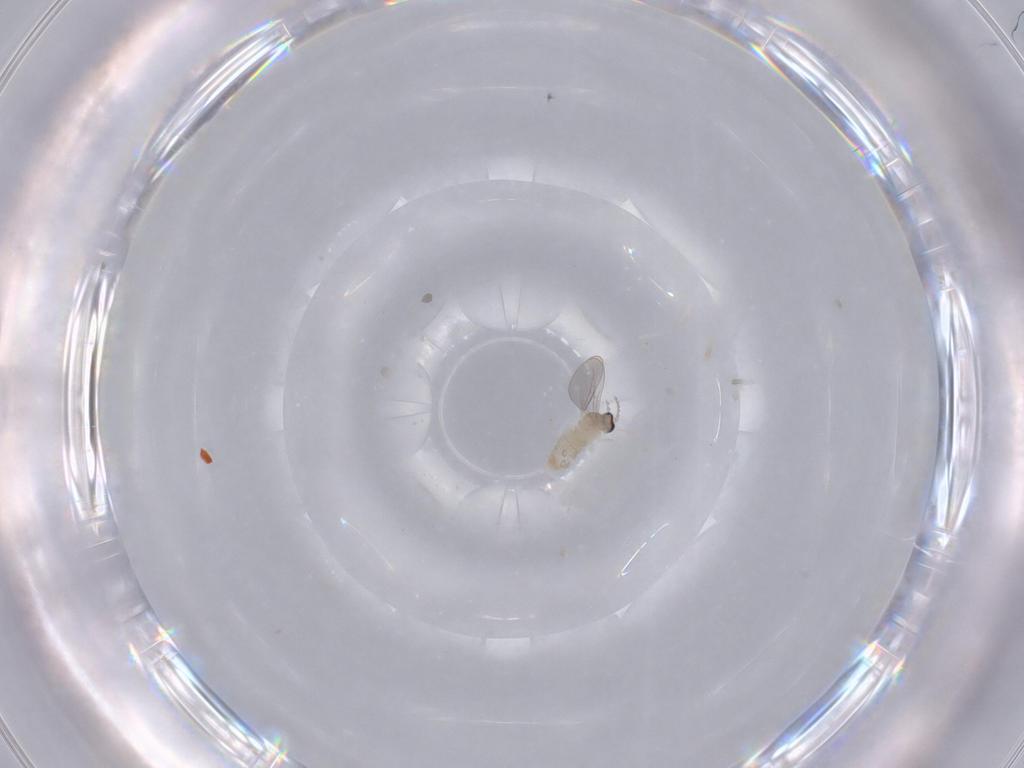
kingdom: Animalia
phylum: Arthropoda
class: Insecta
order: Diptera
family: Cecidomyiidae
